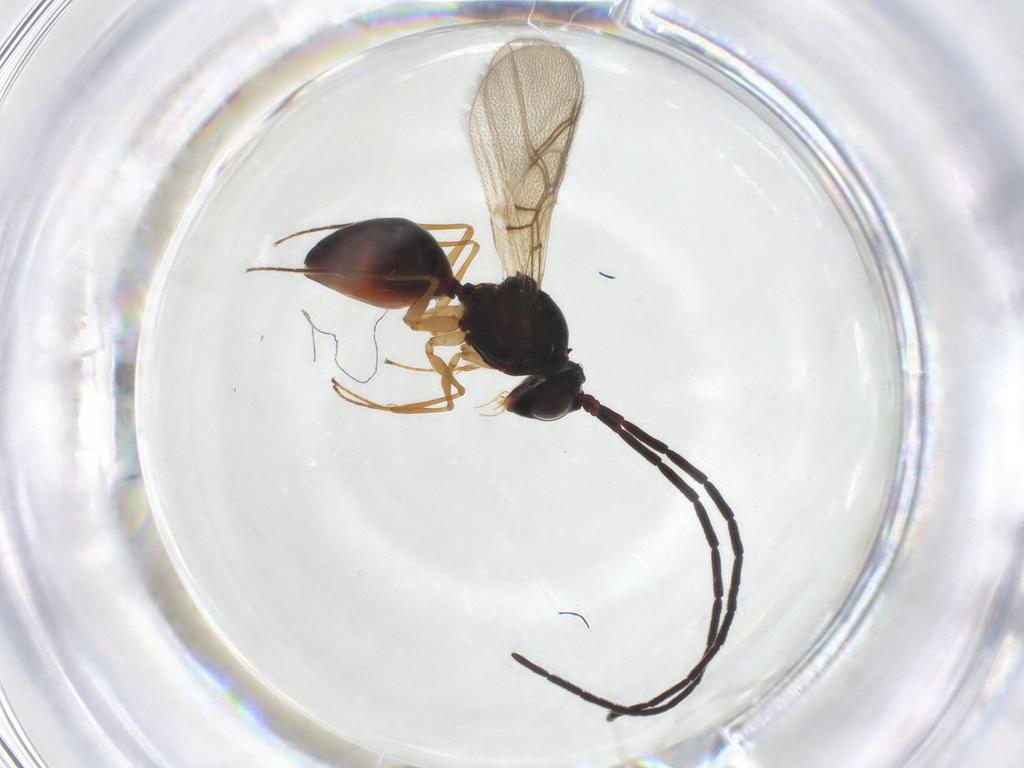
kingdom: Animalia
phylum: Arthropoda
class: Insecta
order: Hymenoptera
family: Figitidae
